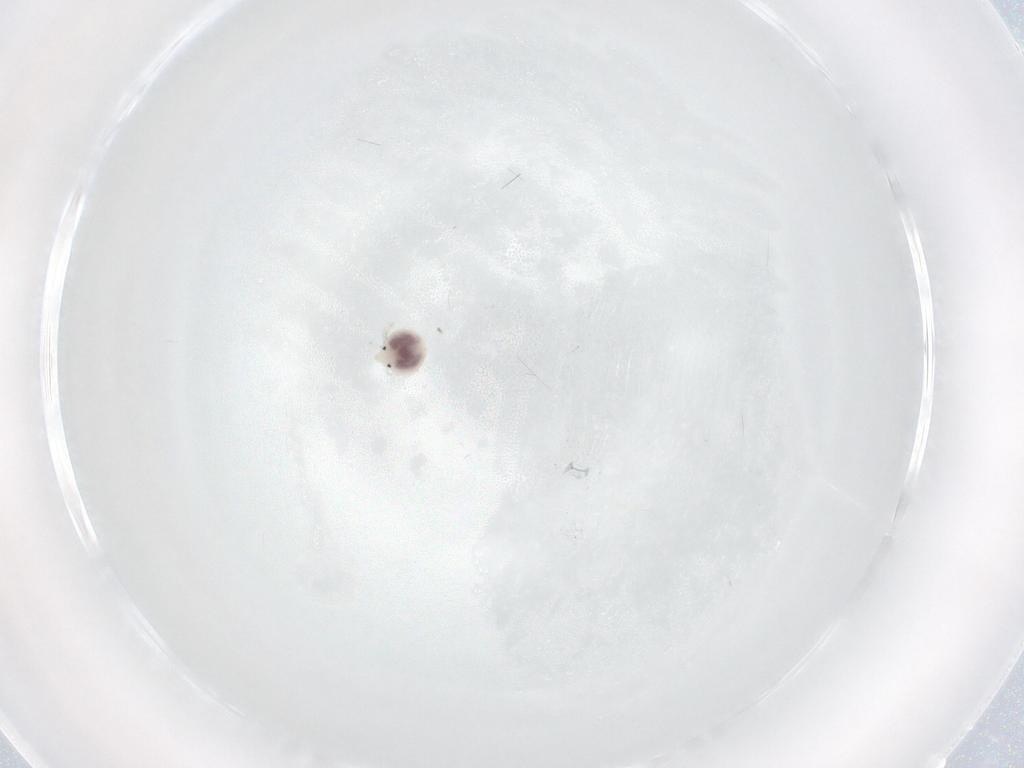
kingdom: Animalia
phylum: Arthropoda
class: Arachnida
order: Trombidiformes
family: Pionidae
